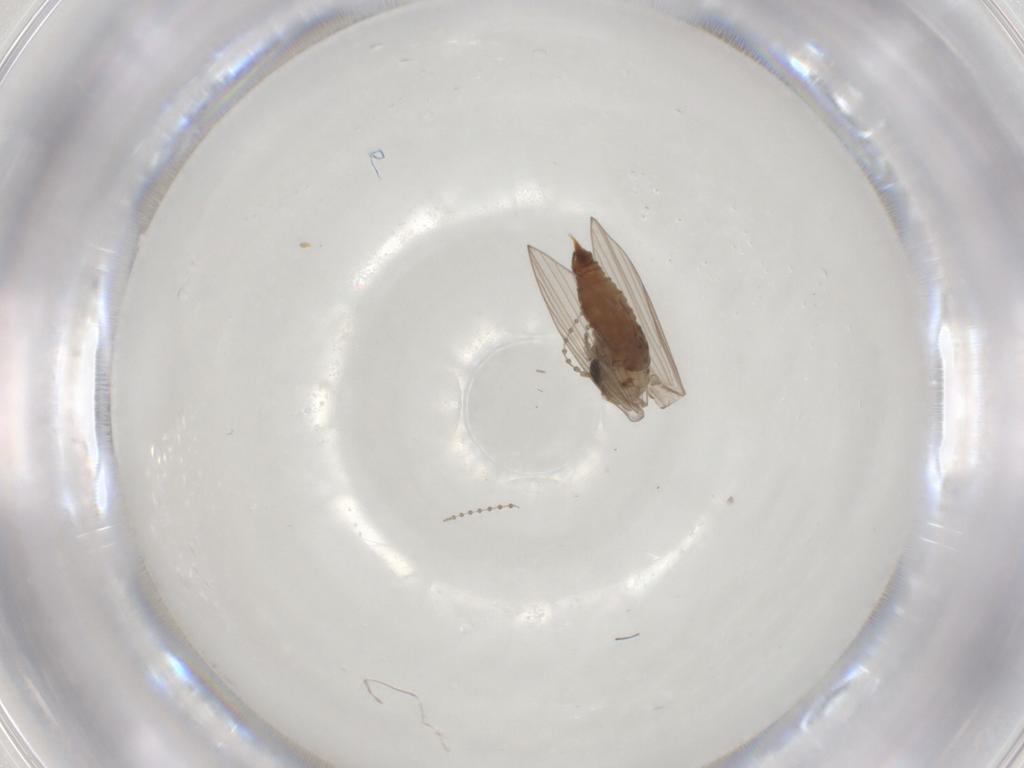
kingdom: Animalia
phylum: Arthropoda
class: Insecta
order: Diptera
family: Psychodidae
